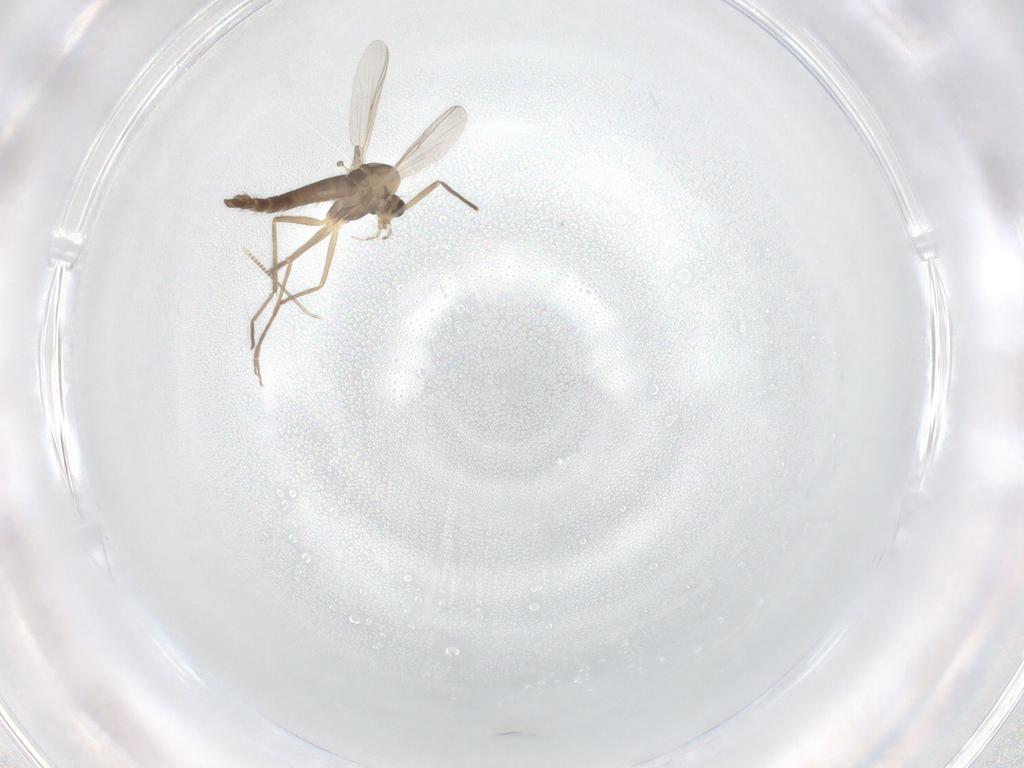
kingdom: Animalia
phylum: Arthropoda
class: Insecta
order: Diptera
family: Chironomidae
